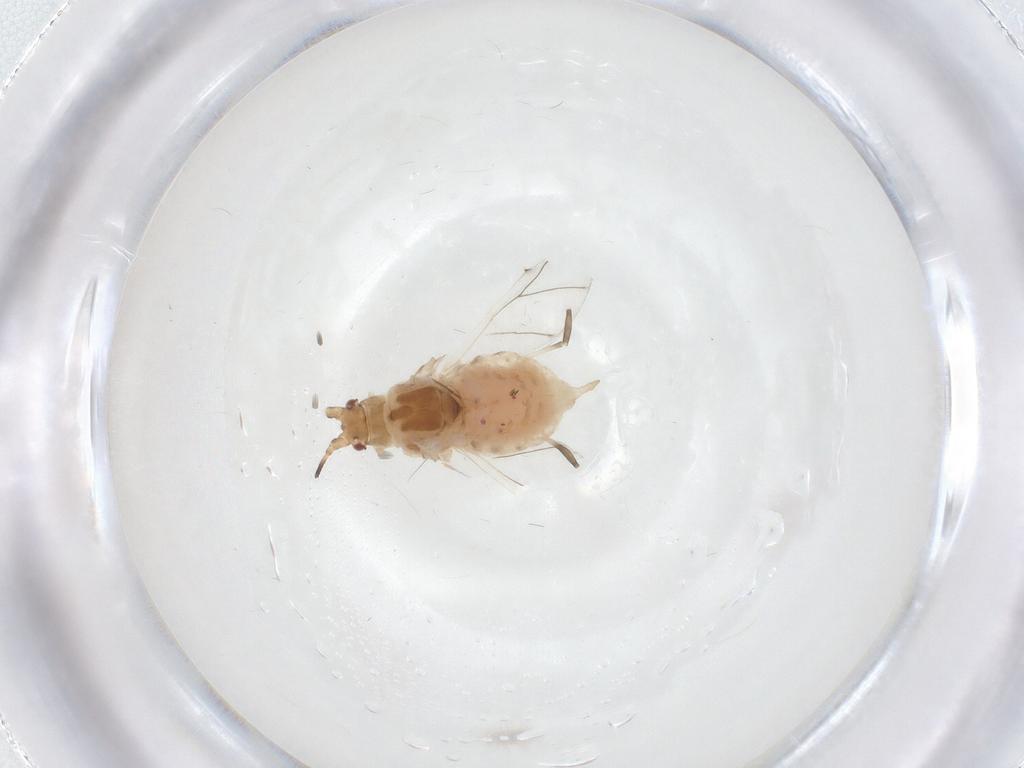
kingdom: Animalia
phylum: Arthropoda
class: Insecta
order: Hemiptera
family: Aphididae
